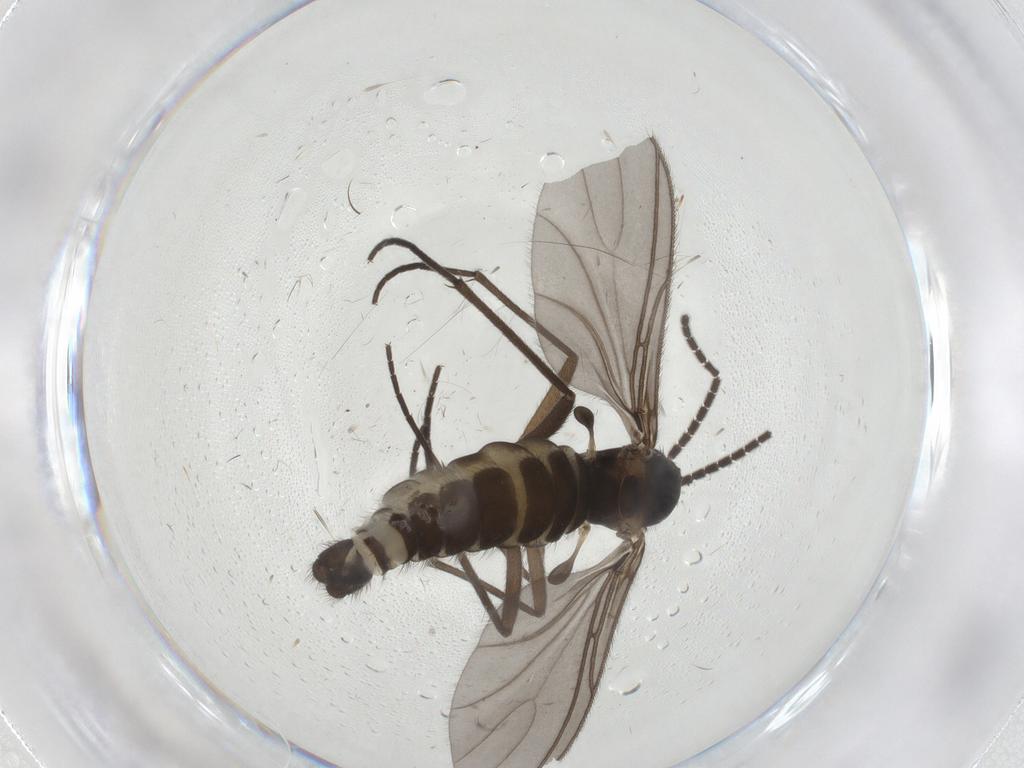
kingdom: Animalia
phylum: Arthropoda
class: Insecta
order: Diptera
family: Sciaridae
